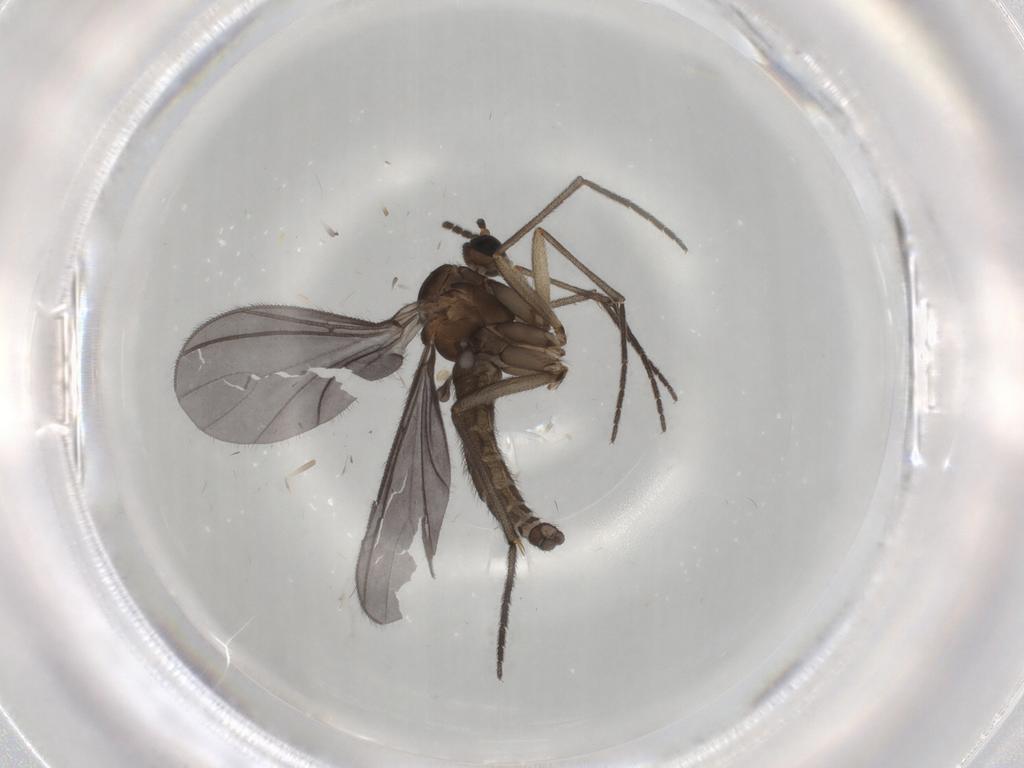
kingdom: Animalia
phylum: Arthropoda
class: Insecta
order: Diptera
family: Sciaridae
